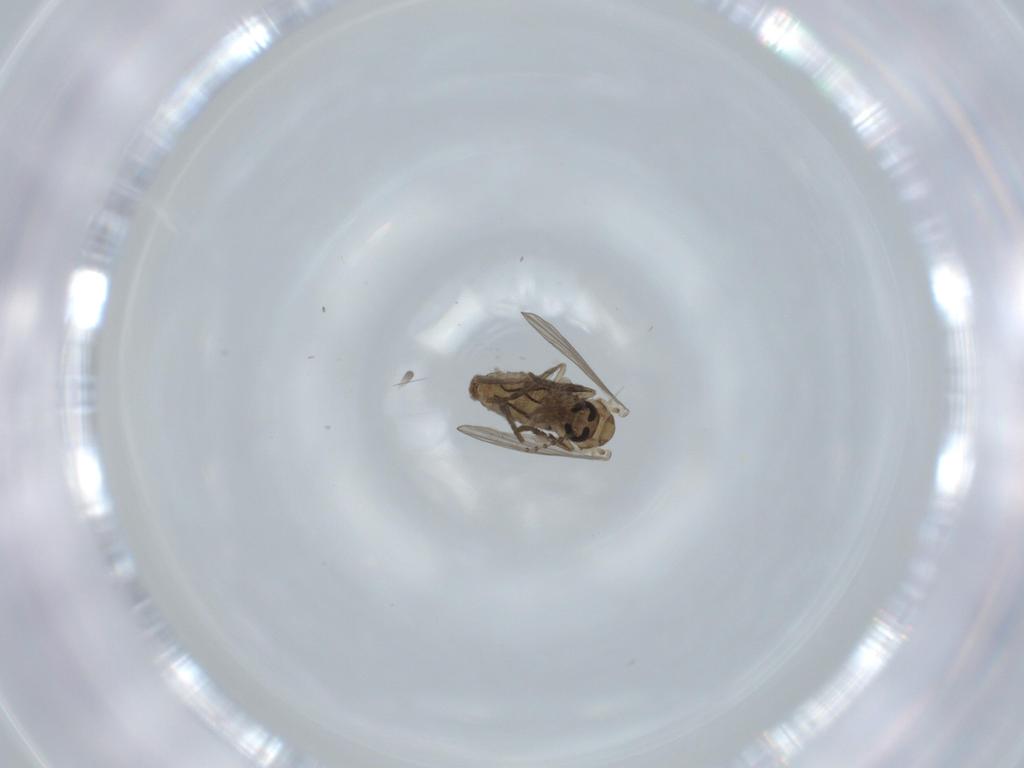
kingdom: Animalia
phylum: Arthropoda
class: Insecta
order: Diptera
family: Psychodidae
